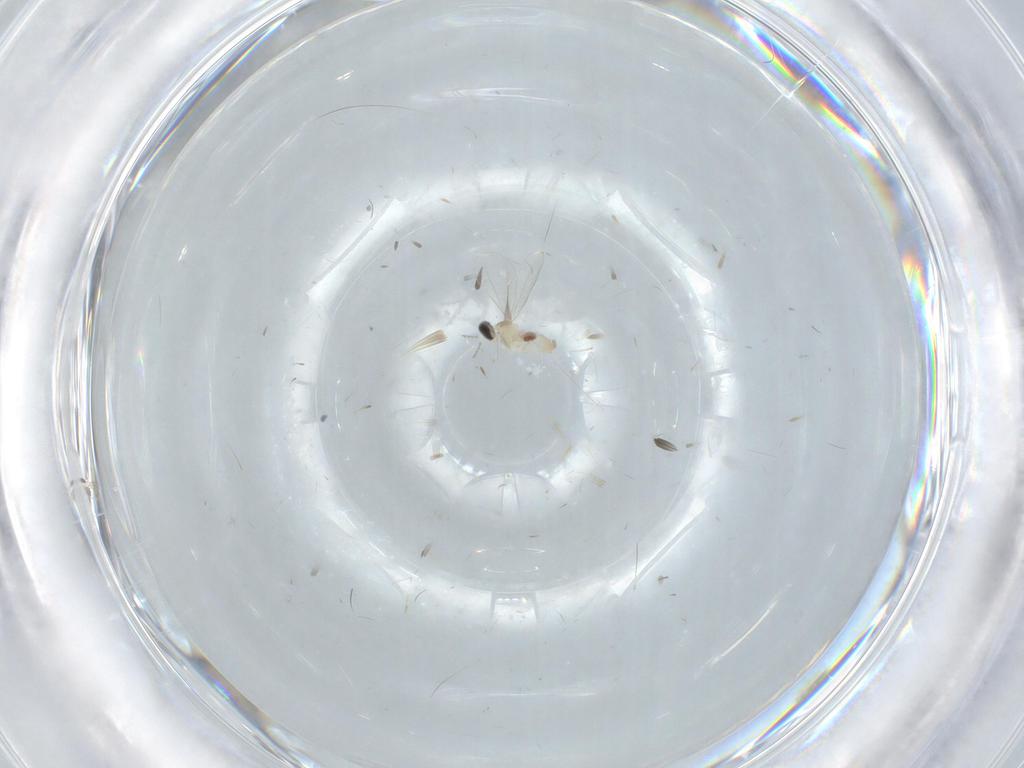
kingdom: Animalia
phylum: Arthropoda
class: Insecta
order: Diptera
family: Cecidomyiidae
